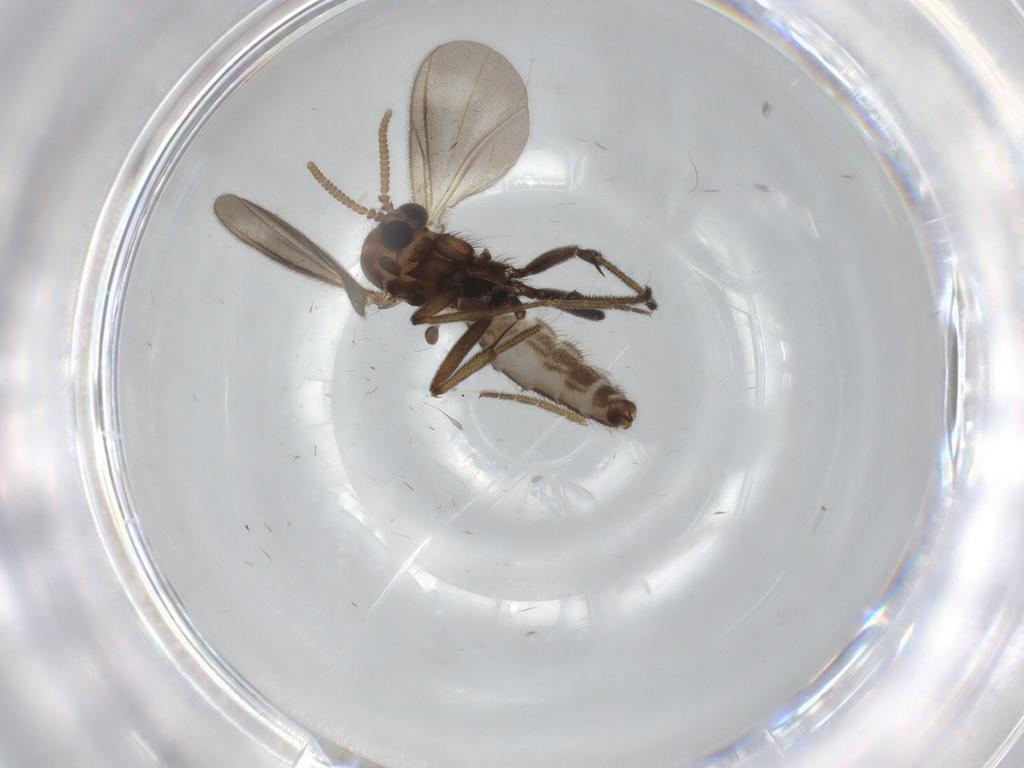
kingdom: Animalia
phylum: Arthropoda
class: Insecta
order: Diptera
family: Mycetophilidae
